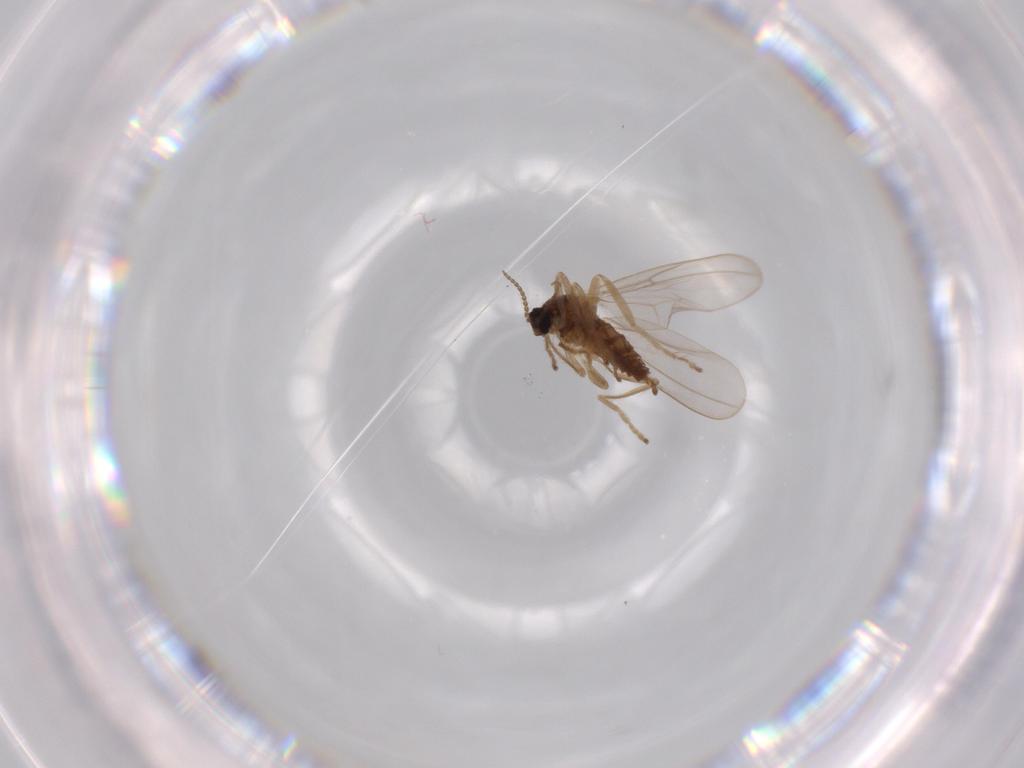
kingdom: Animalia
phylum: Arthropoda
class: Insecta
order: Diptera
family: Cecidomyiidae
